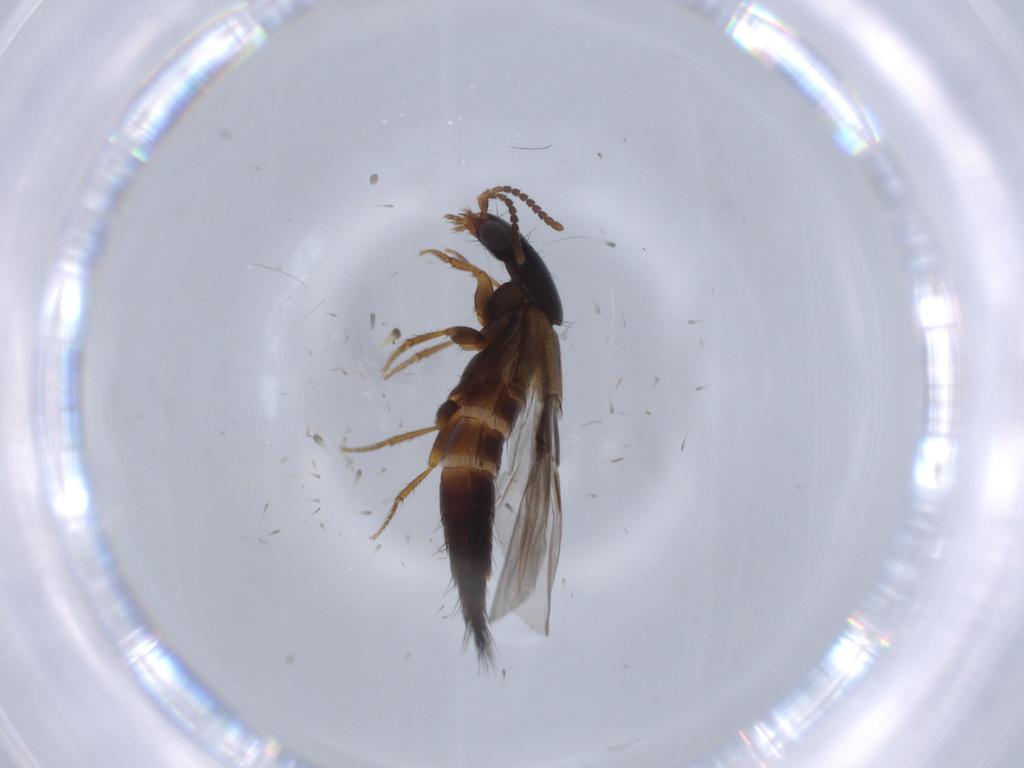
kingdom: Animalia
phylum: Arthropoda
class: Insecta
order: Coleoptera
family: Staphylinidae
